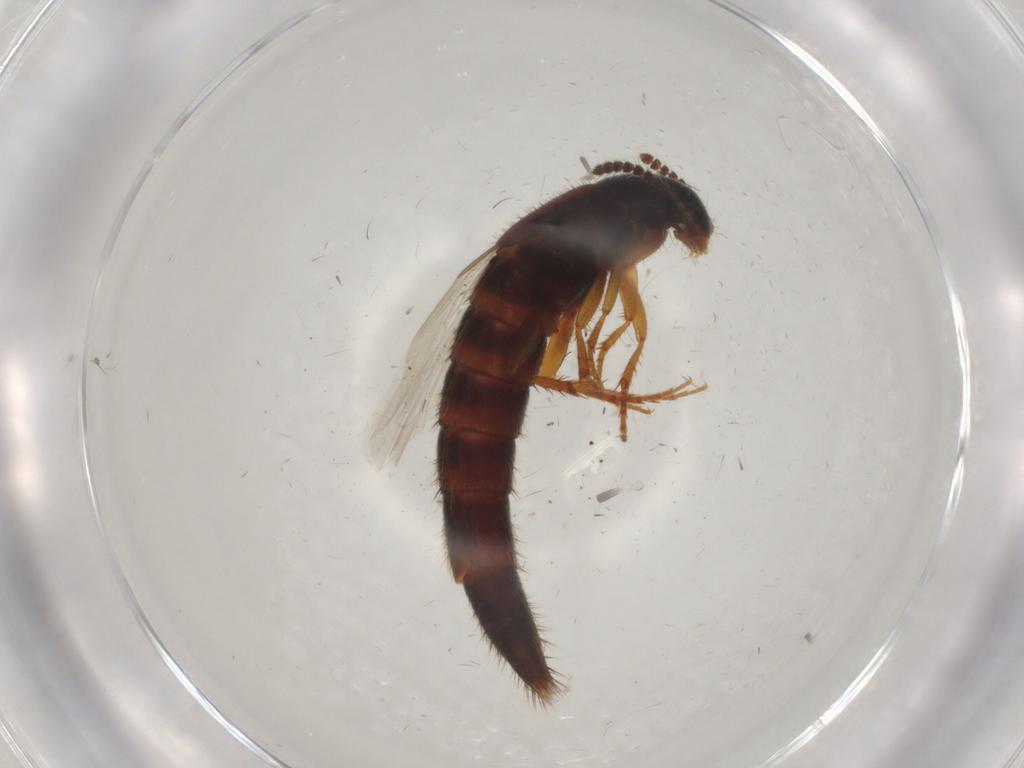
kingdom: Animalia
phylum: Arthropoda
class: Insecta
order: Coleoptera
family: Staphylinidae
